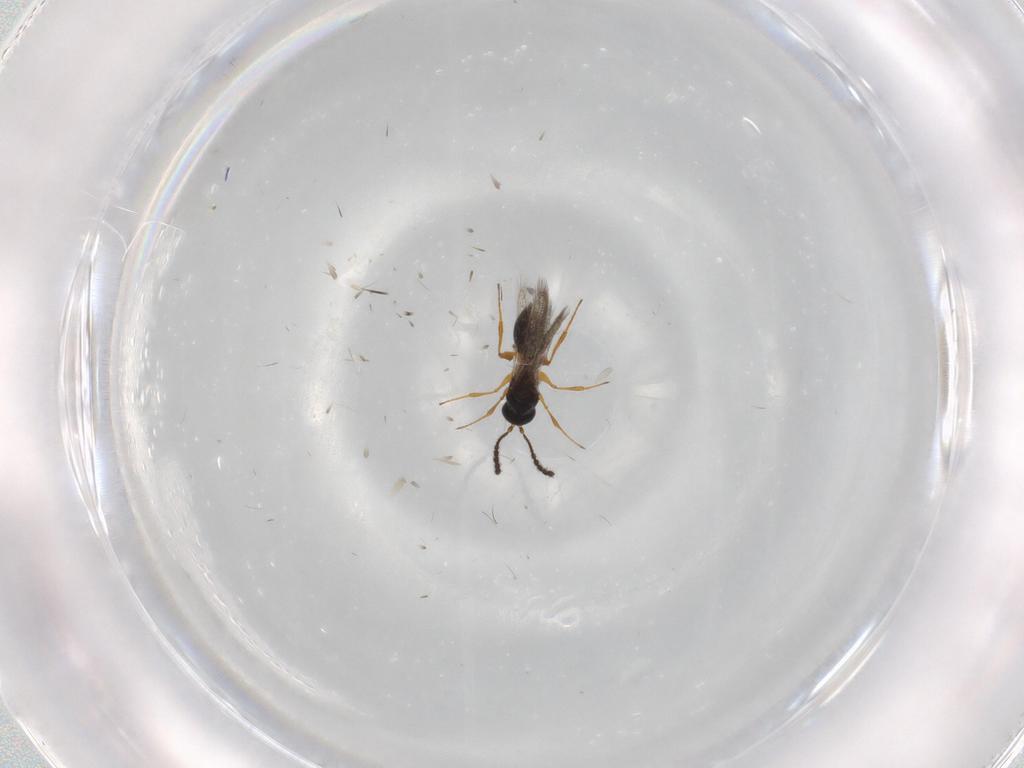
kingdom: Animalia
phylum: Arthropoda
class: Insecta
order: Hymenoptera
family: Figitidae
